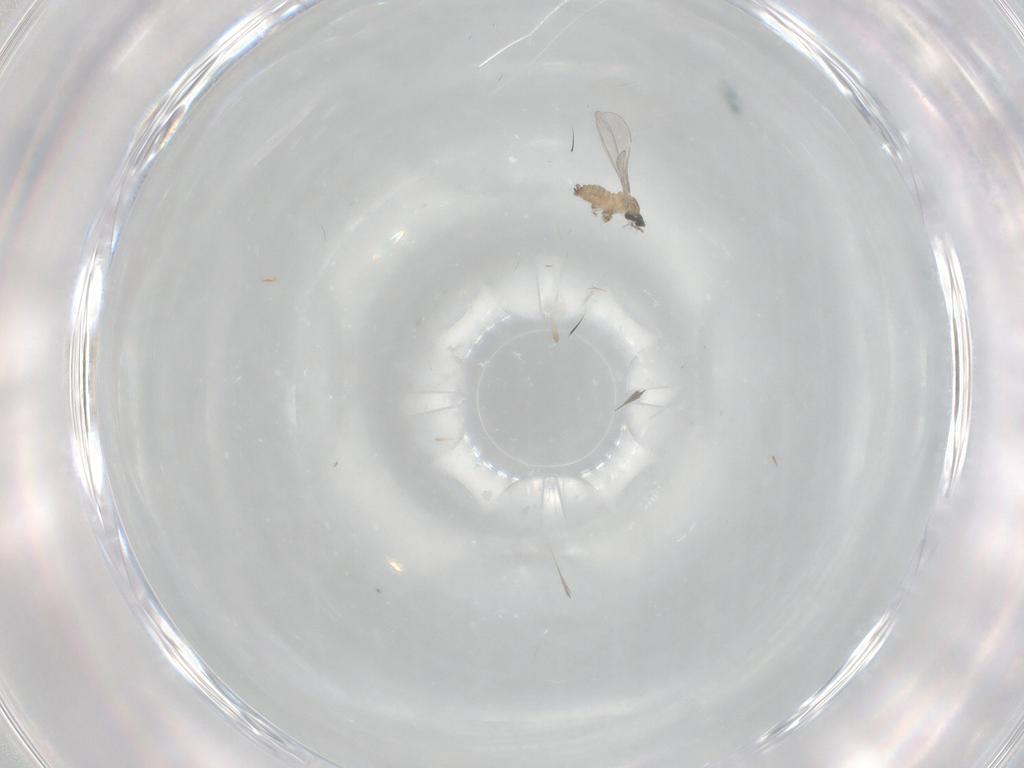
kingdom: Animalia
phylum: Arthropoda
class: Insecta
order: Diptera
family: Cecidomyiidae
